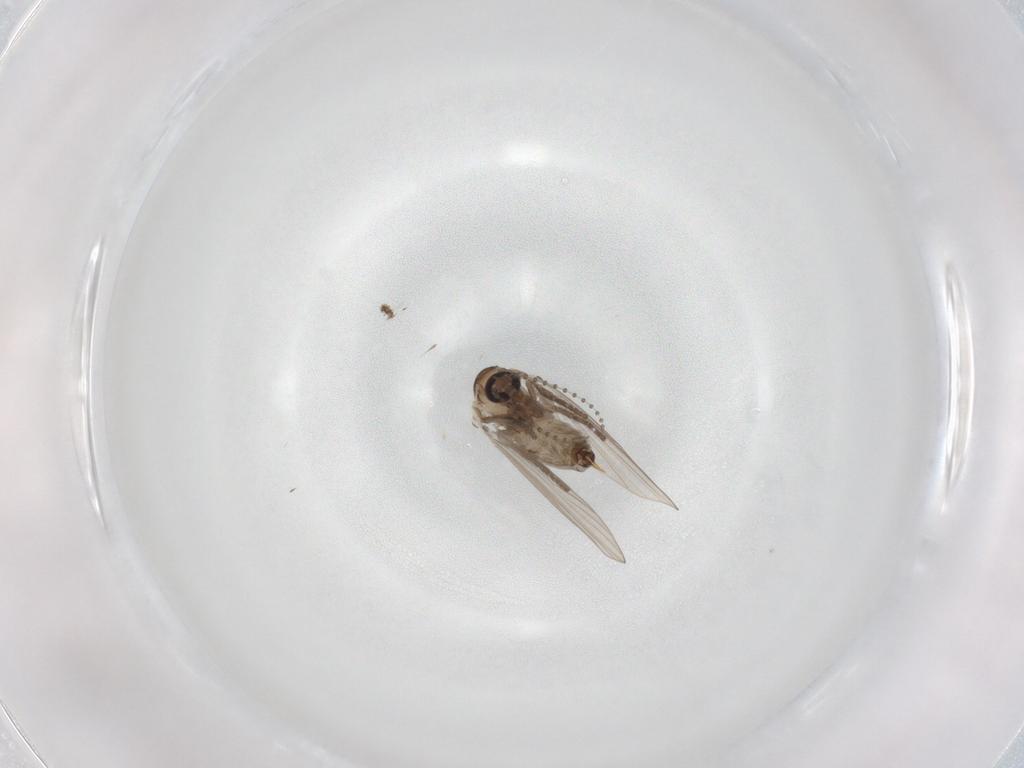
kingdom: Animalia
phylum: Arthropoda
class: Insecta
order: Diptera
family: Psychodidae
